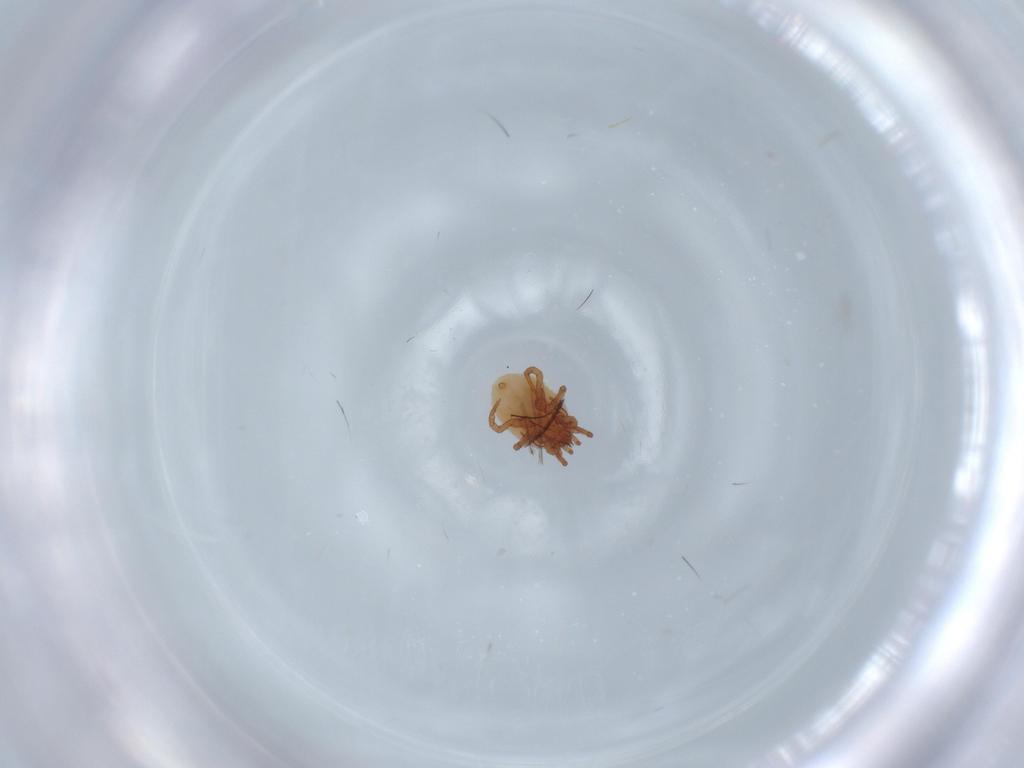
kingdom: Animalia
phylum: Arthropoda
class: Arachnida
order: Mesostigmata
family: Parasitidae
